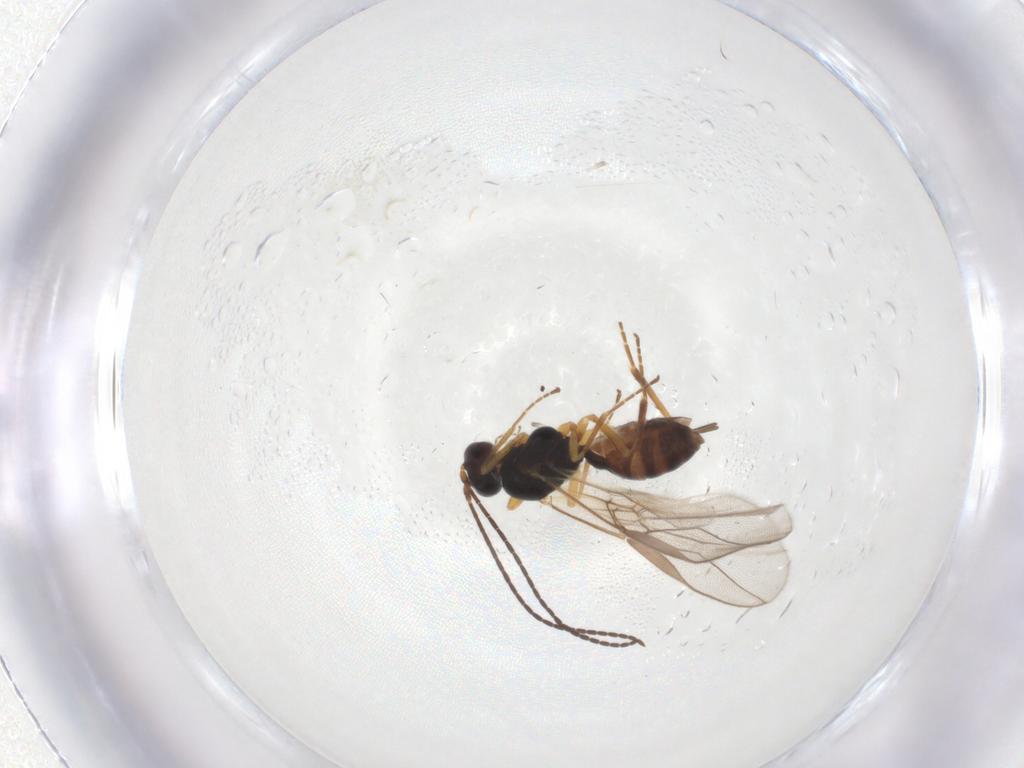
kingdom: Animalia
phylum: Arthropoda
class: Insecta
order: Hymenoptera
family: Braconidae
